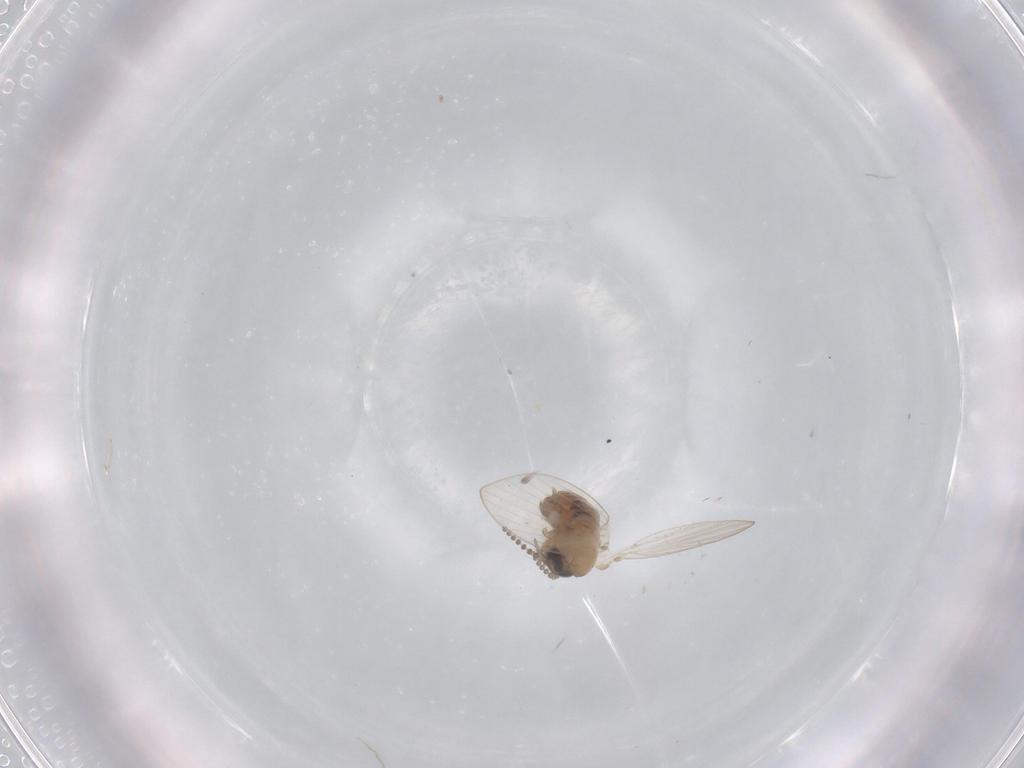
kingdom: Animalia
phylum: Arthropoda
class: Insecta
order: Diptera
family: Psychodidae
